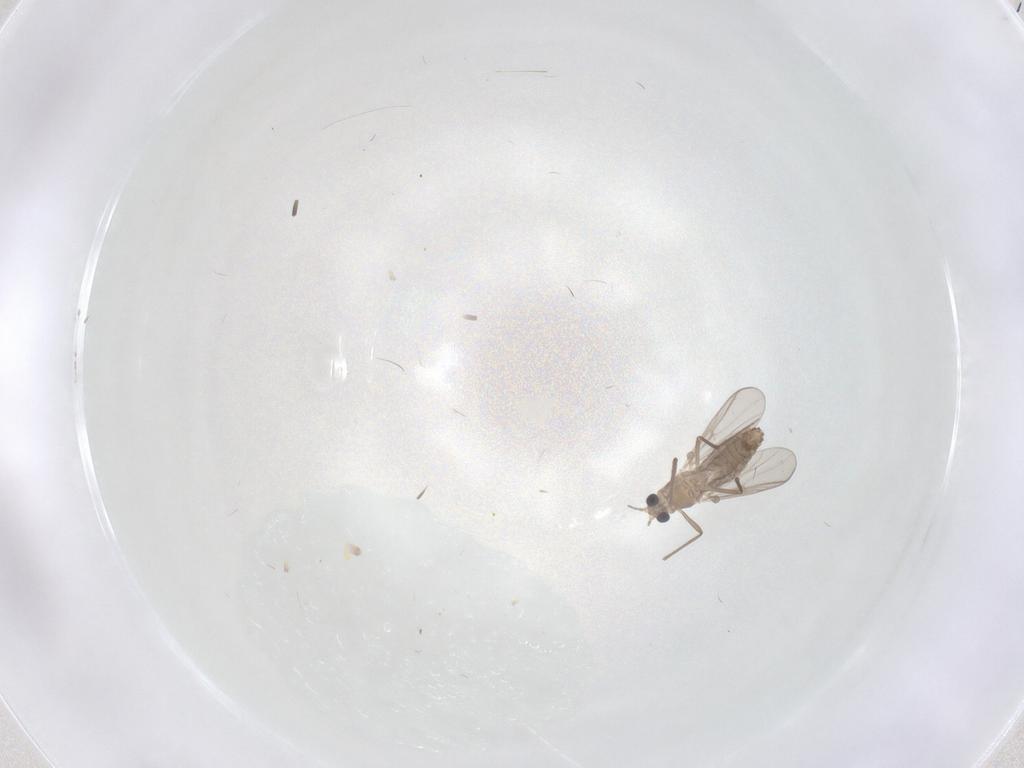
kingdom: Animalia
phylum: Arthropoda
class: Insecta
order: Diptera
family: Chironomidae
